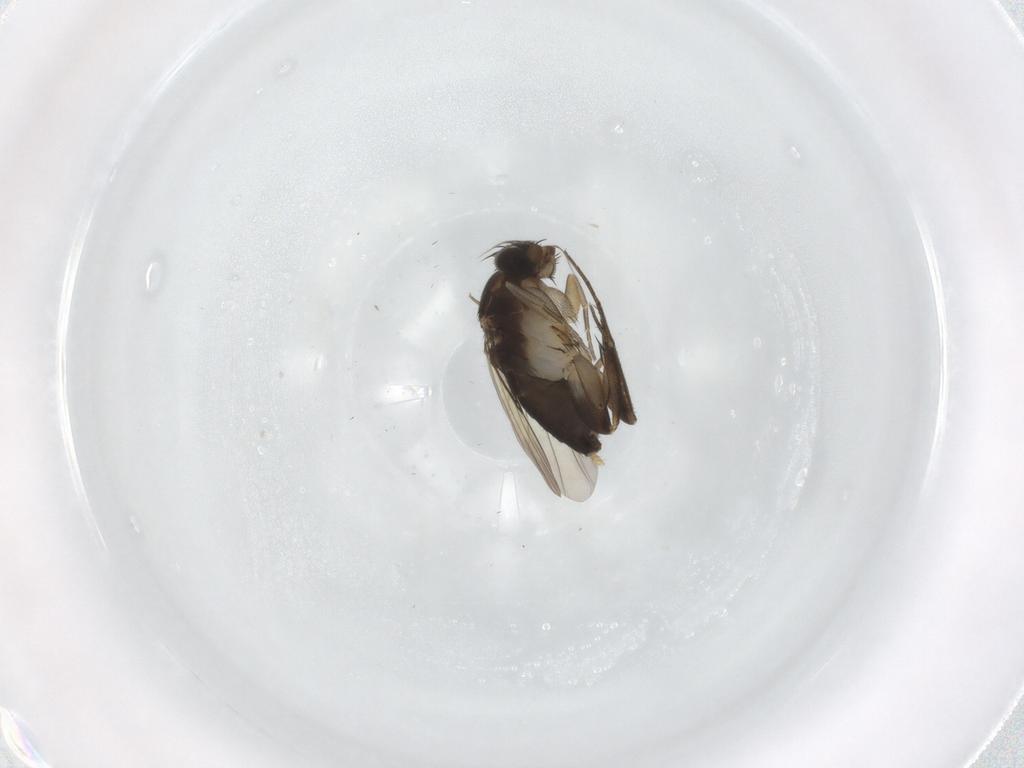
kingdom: Animalia
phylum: Arthropoda
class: Insecta
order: Diptera
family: Phoridae
